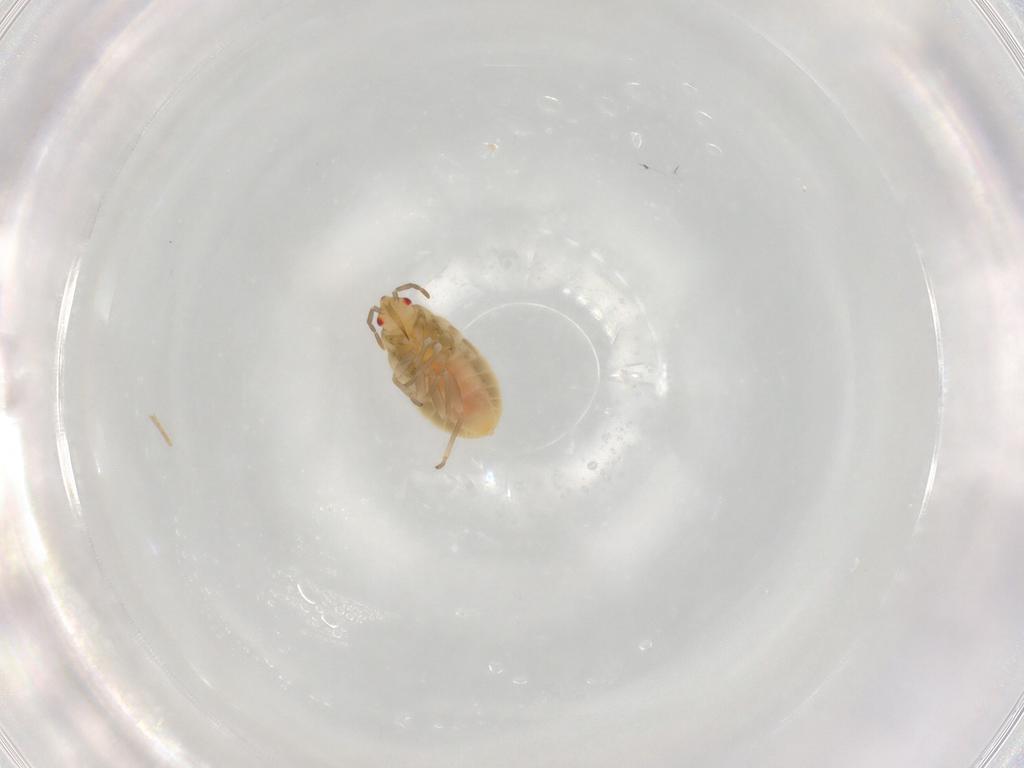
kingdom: Animalia
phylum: Arthropoda
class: Insecta
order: Hemiptera
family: Anthocoridae
